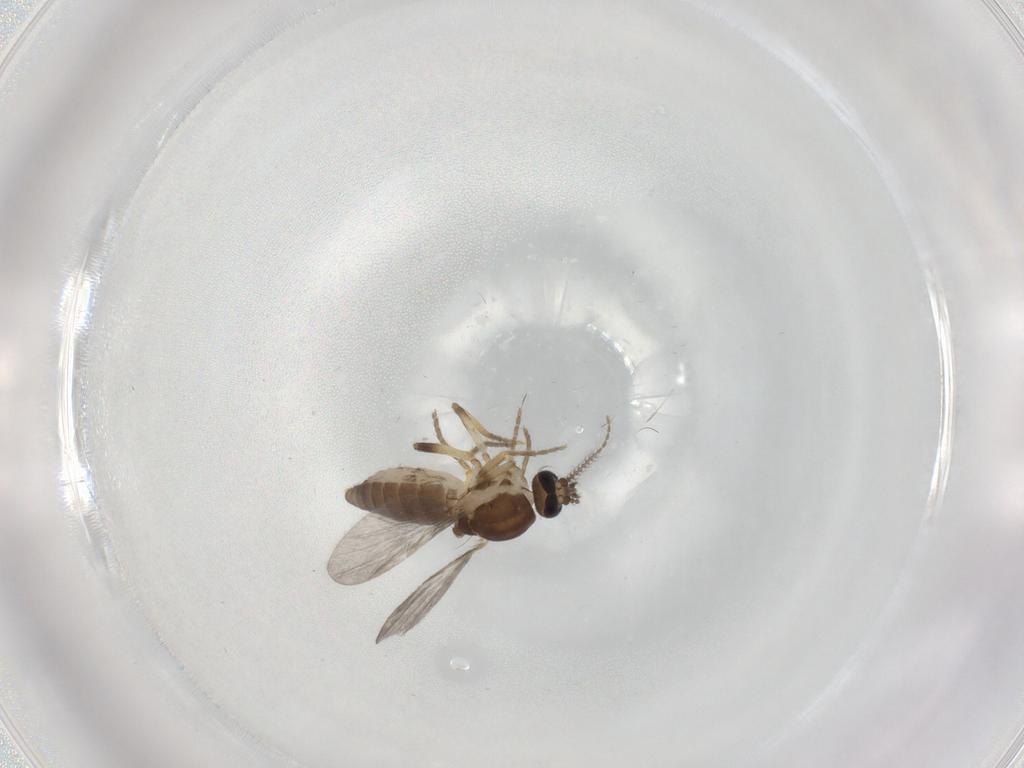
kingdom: Animalia
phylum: Arthropoda
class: Insecta
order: Diptera
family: Ceratopogonidae
